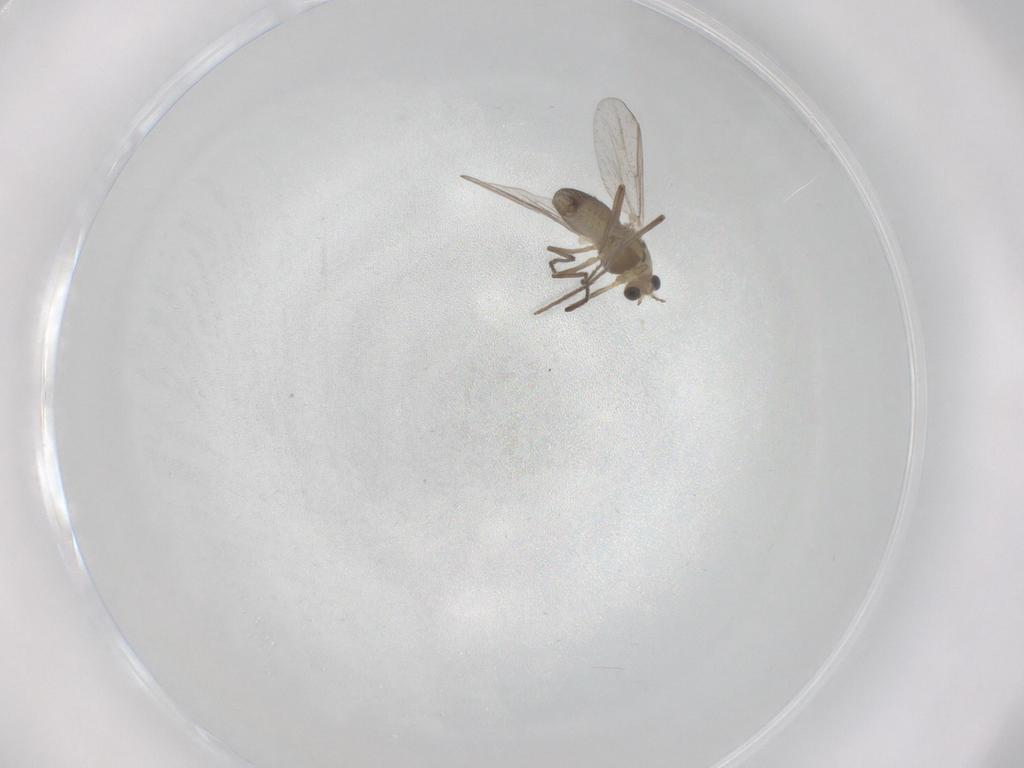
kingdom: Animalia
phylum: Arthropoda
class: Insecta
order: Diptera
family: Chironomidae
